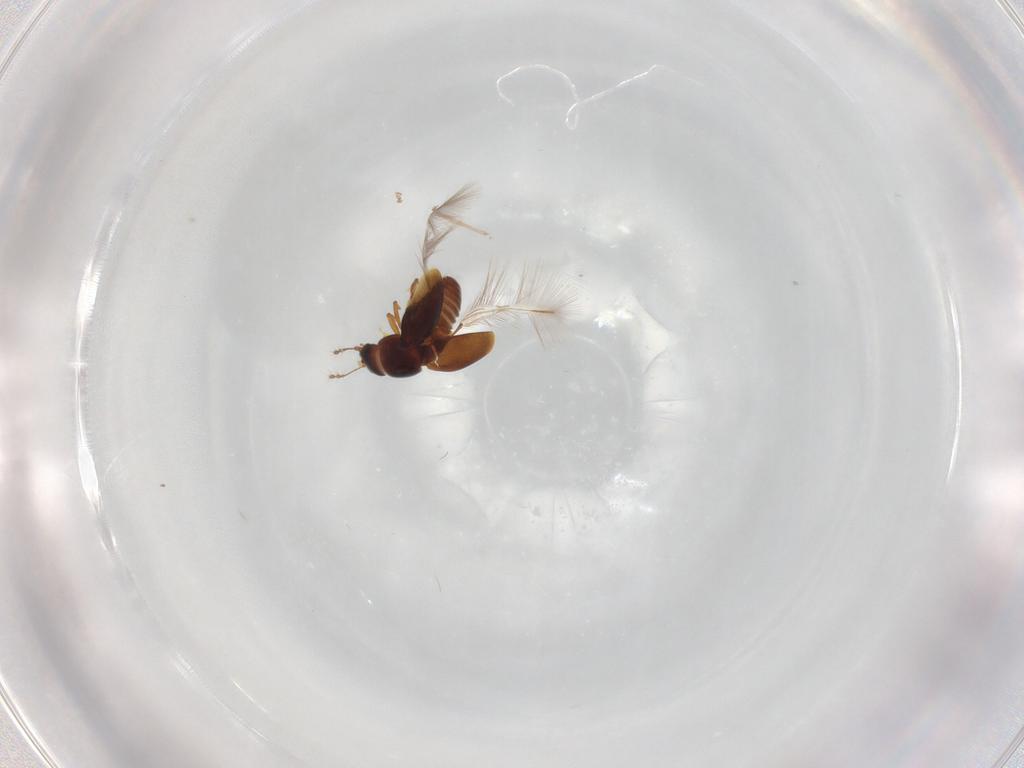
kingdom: Animalia
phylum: Arthropoda
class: Insecta
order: Coleoptera
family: Ptiliidae
